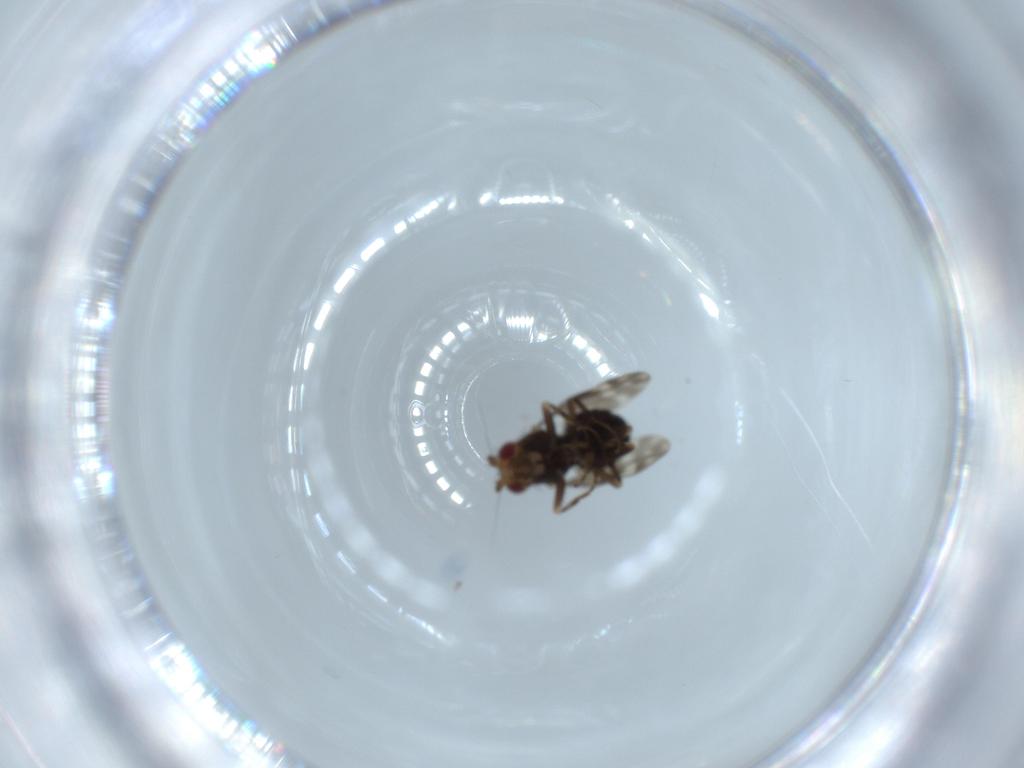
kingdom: Animalia
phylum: Arthropoda
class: Insecta
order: Diptera
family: Sphaeroceridae
